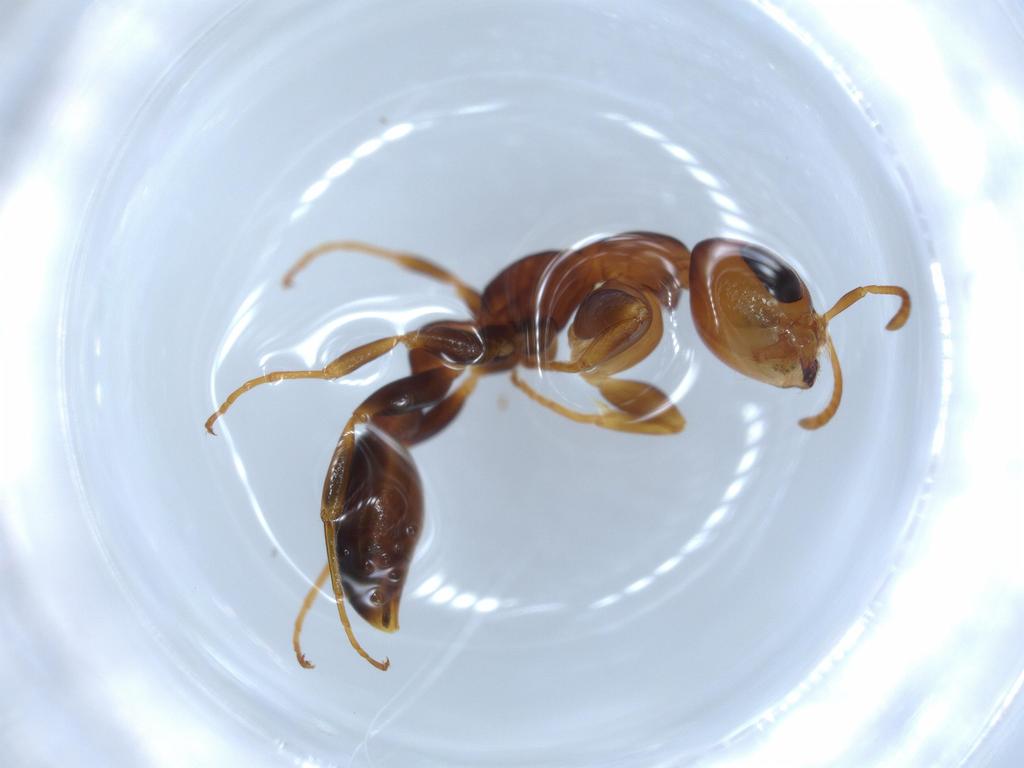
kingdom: Animalia
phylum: Arthropoda
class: Insecta
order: Hymenoptera
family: Formicidae
